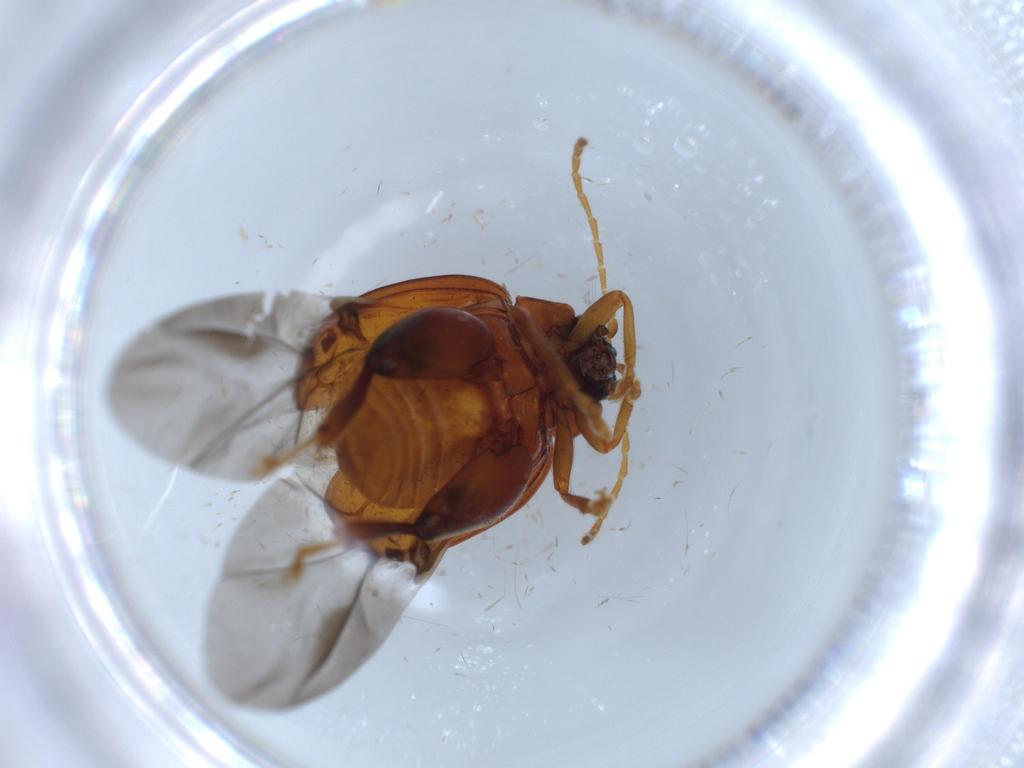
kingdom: Animalia
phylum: Arthropoda
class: Insecta
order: Coleoptera
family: Chrysomelidae
